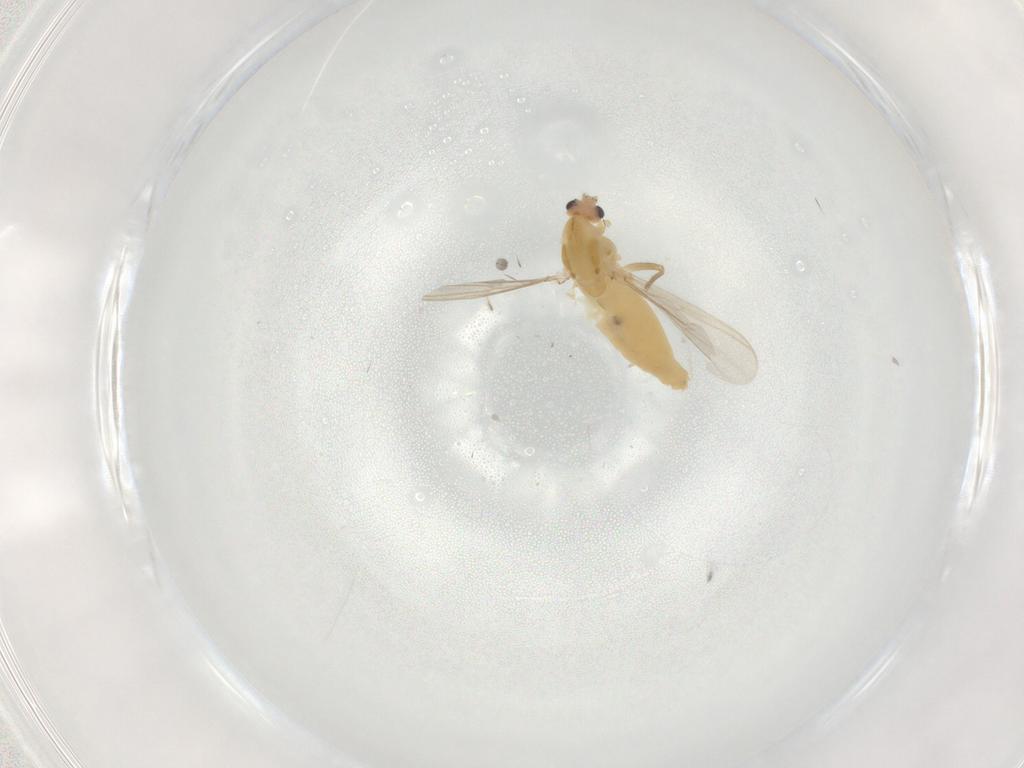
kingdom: Animalia
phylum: Arthropoda
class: Insecta
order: Diptera
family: Chironomidae
